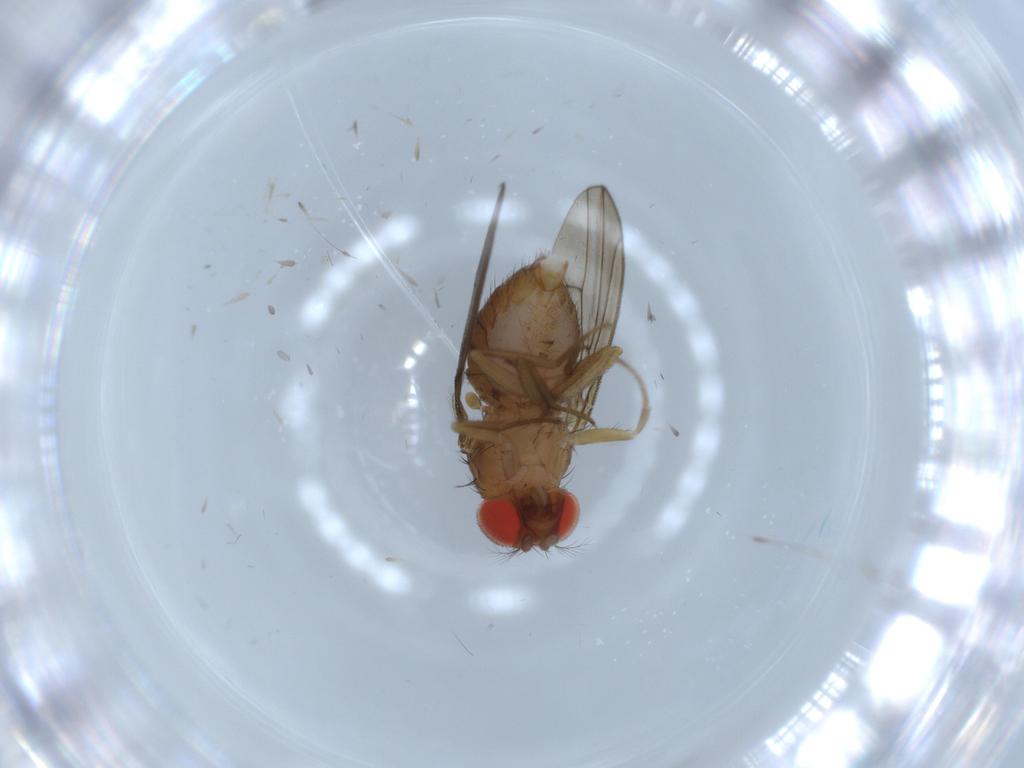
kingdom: Animalia
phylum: Arthropoda
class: Insecta
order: Diptera
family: Drosophilidae
